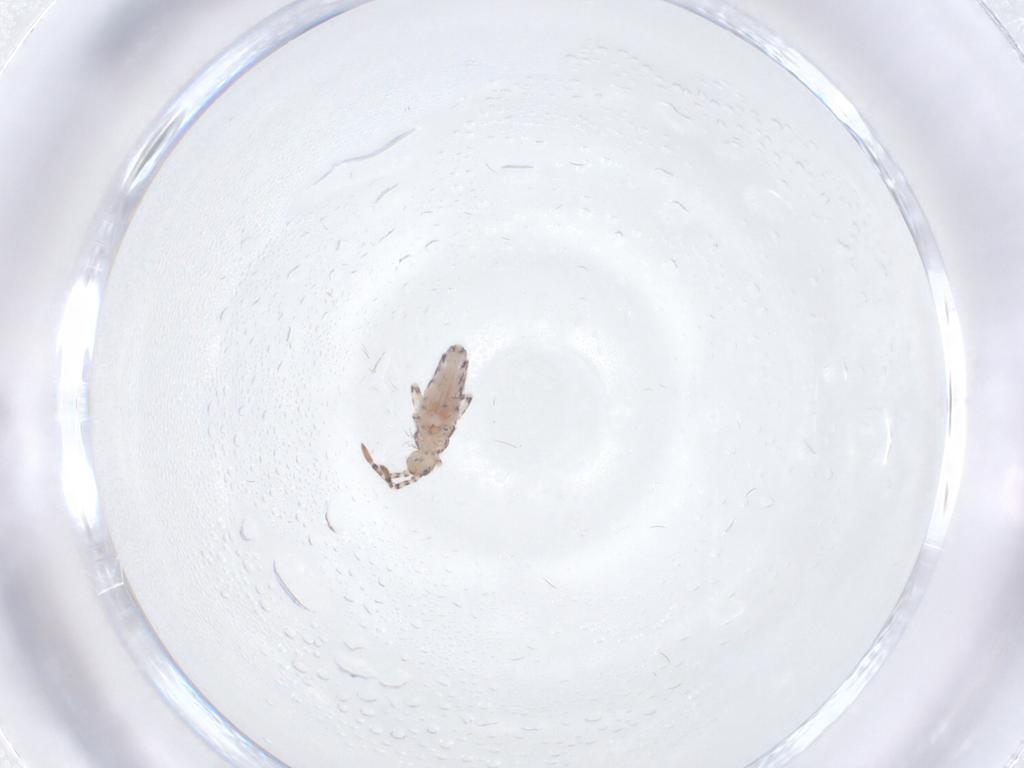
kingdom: Animalia
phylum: Arthropoda
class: Collembola
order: Entomobryomorpha
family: Entomobryidae
